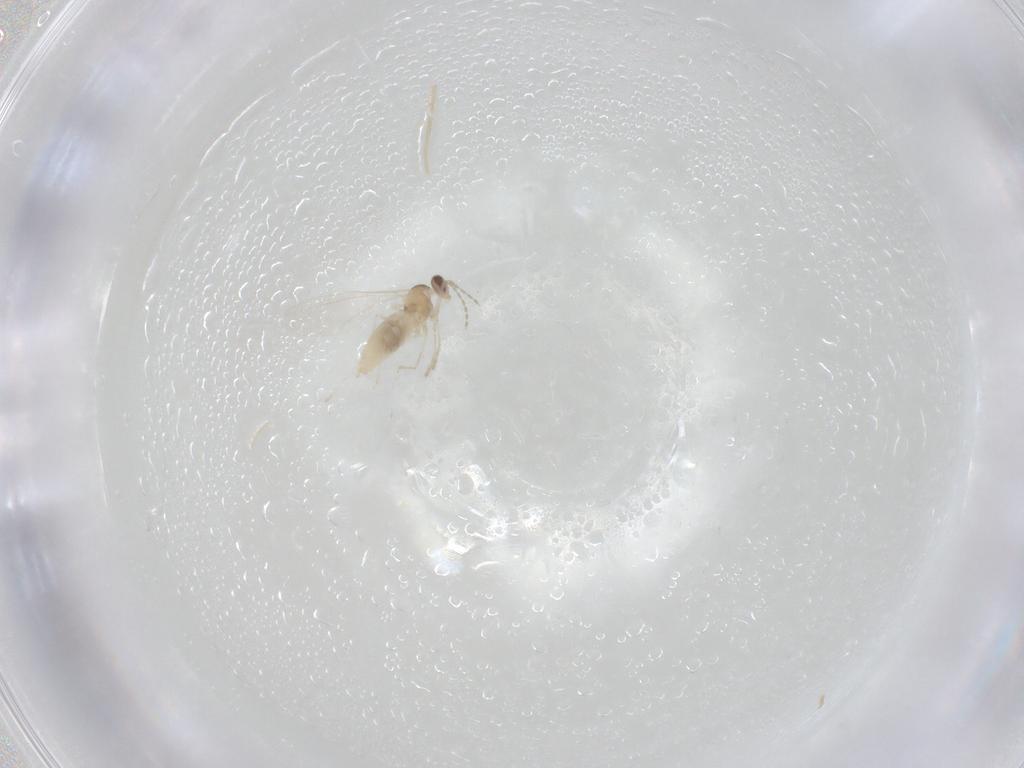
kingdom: Animalia
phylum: Arthropoda
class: Insecta
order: Diptera
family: Cecidomyiidae
